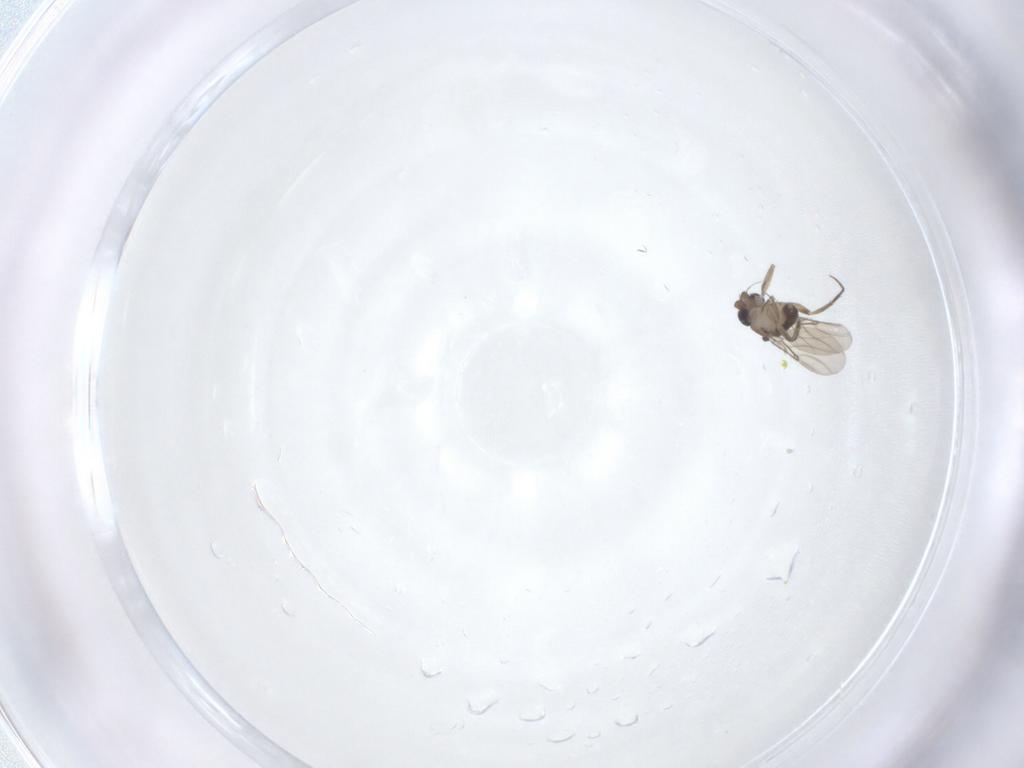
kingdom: Animalia
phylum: Arthropoda
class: Insecta
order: Diptera
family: Phoridae
